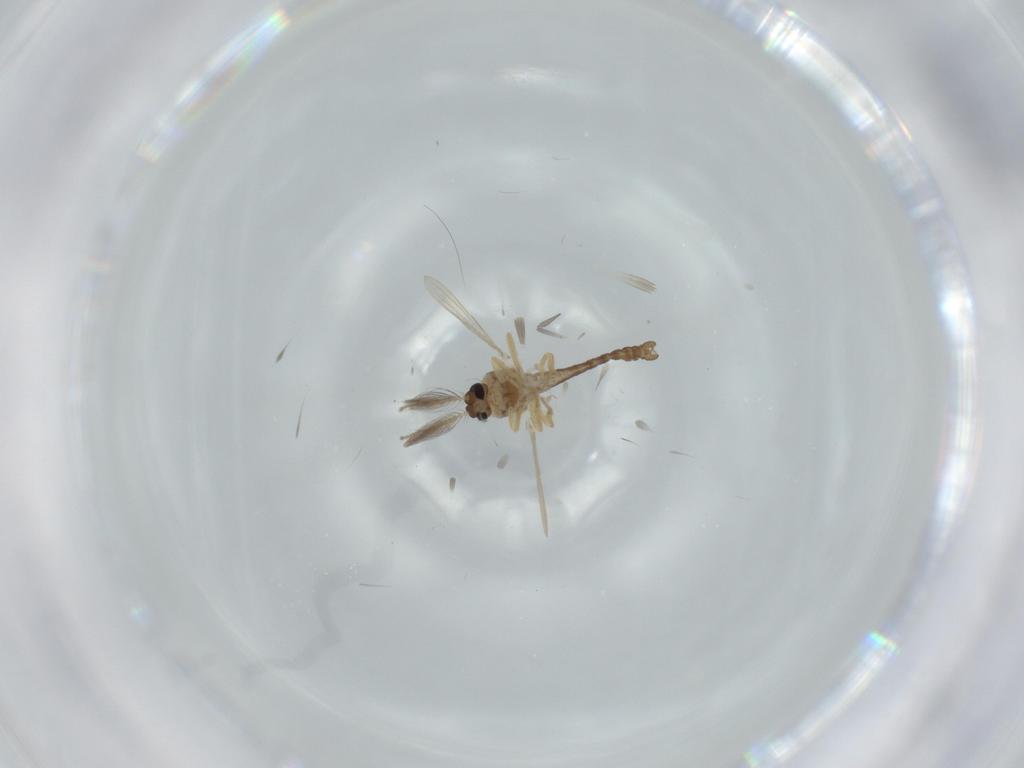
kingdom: Animalia
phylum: Arthropoda
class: Insecta
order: Diptera
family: Ceratopogonidae
